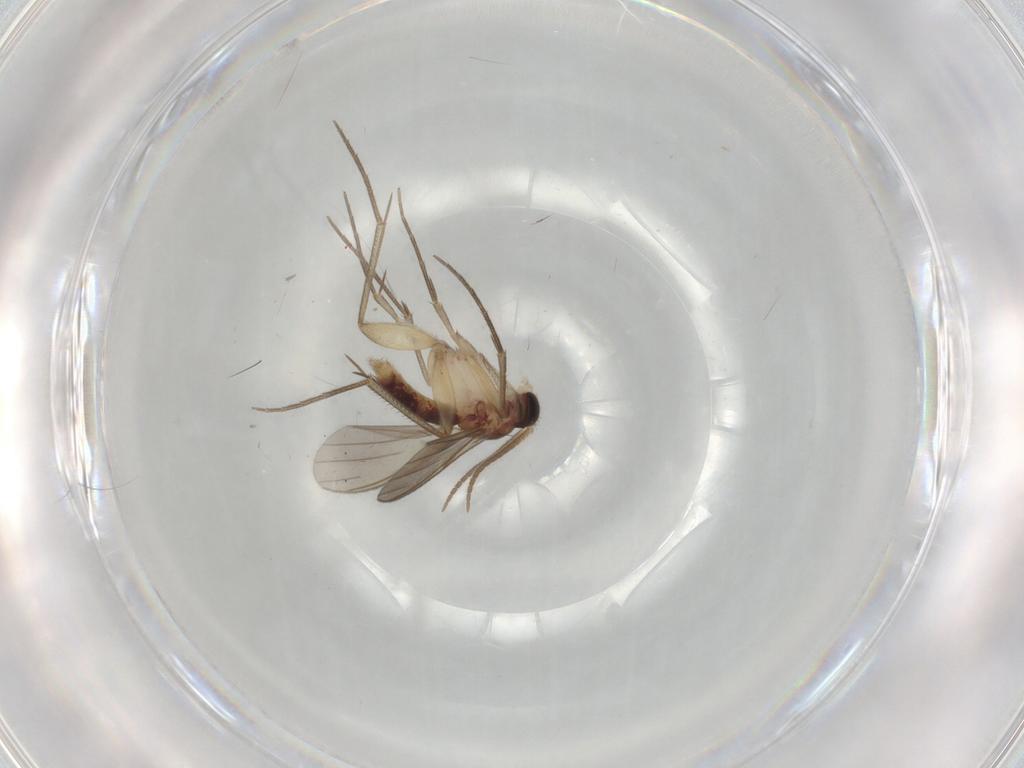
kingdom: Animalia
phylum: Arthropoda
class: Insecta
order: Diptera
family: Mycetophilidae
